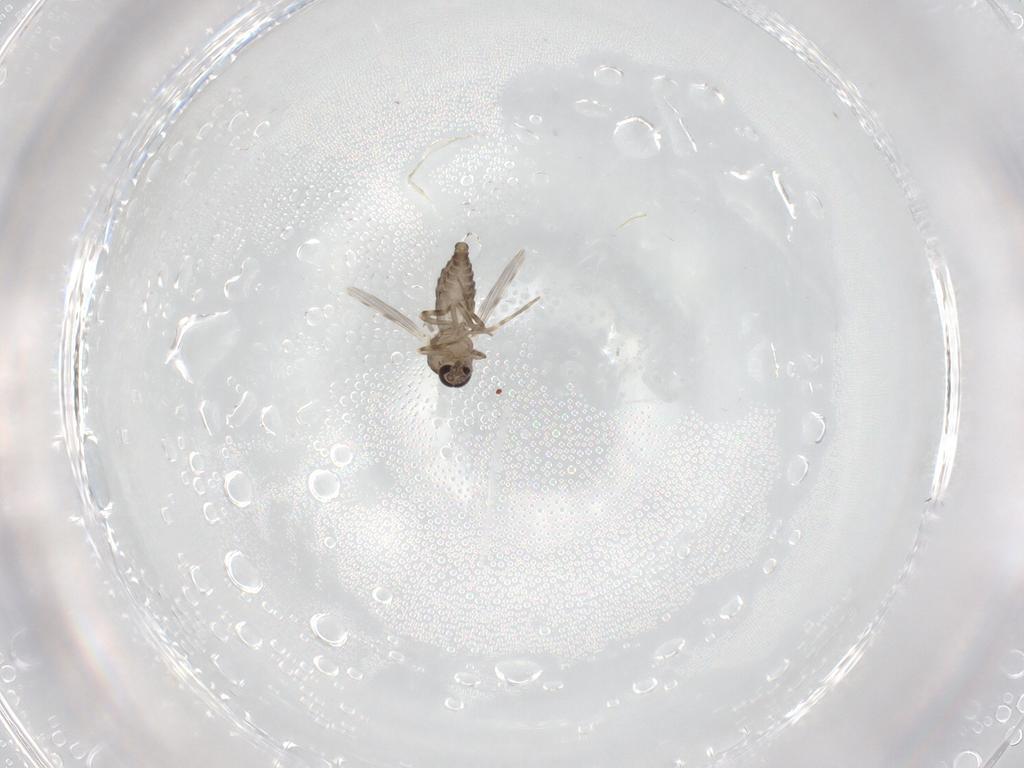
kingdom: Animalia
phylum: Arthropoda
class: Insecta
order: Diptera
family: Ceratopogonidae
